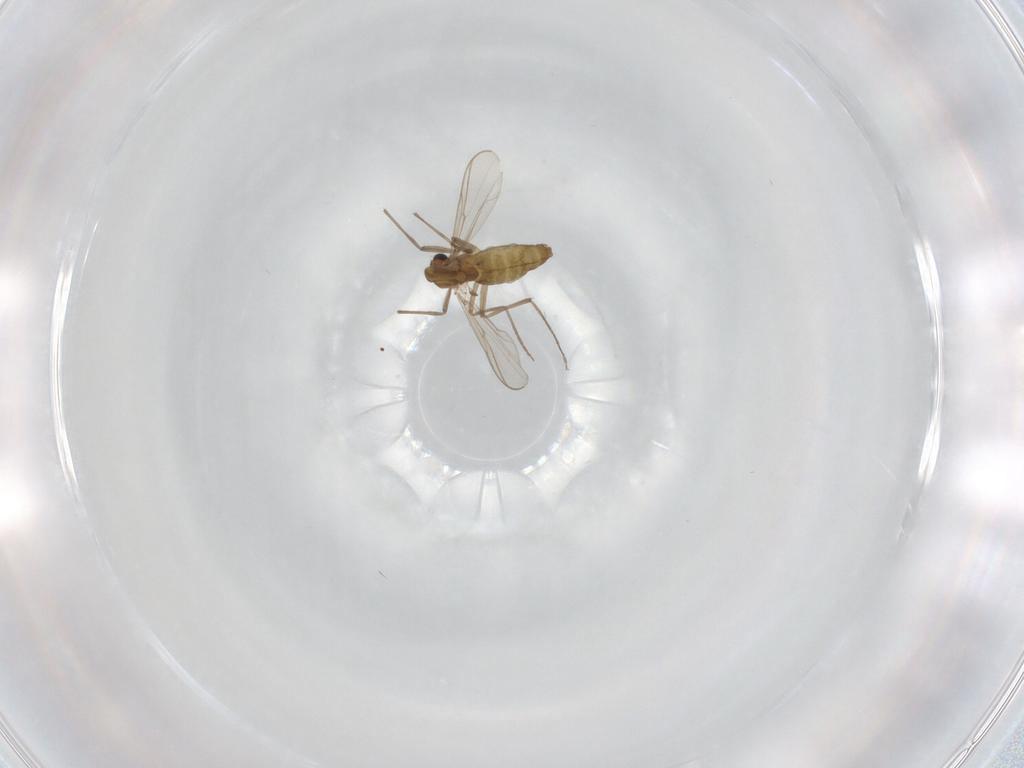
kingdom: Animalia
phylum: Arthropoda
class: Insecta
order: Diptera
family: Chironomidae
